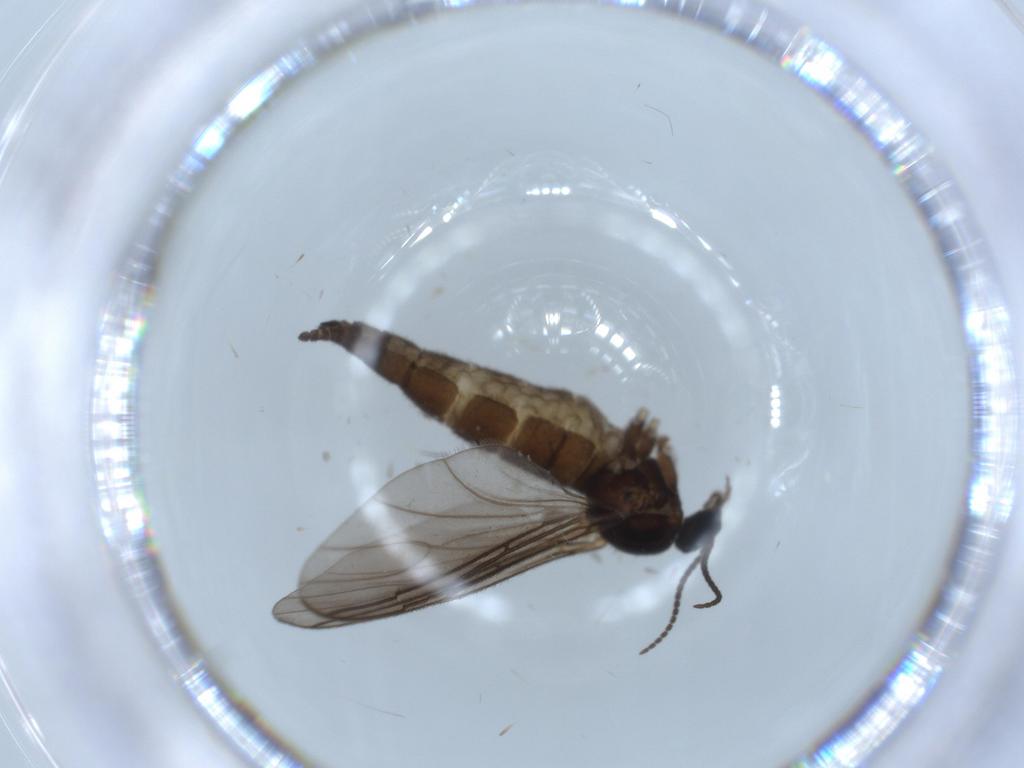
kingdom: Animalia
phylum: Arthropoda
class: Insecta
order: Diptera
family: Sciaridae
